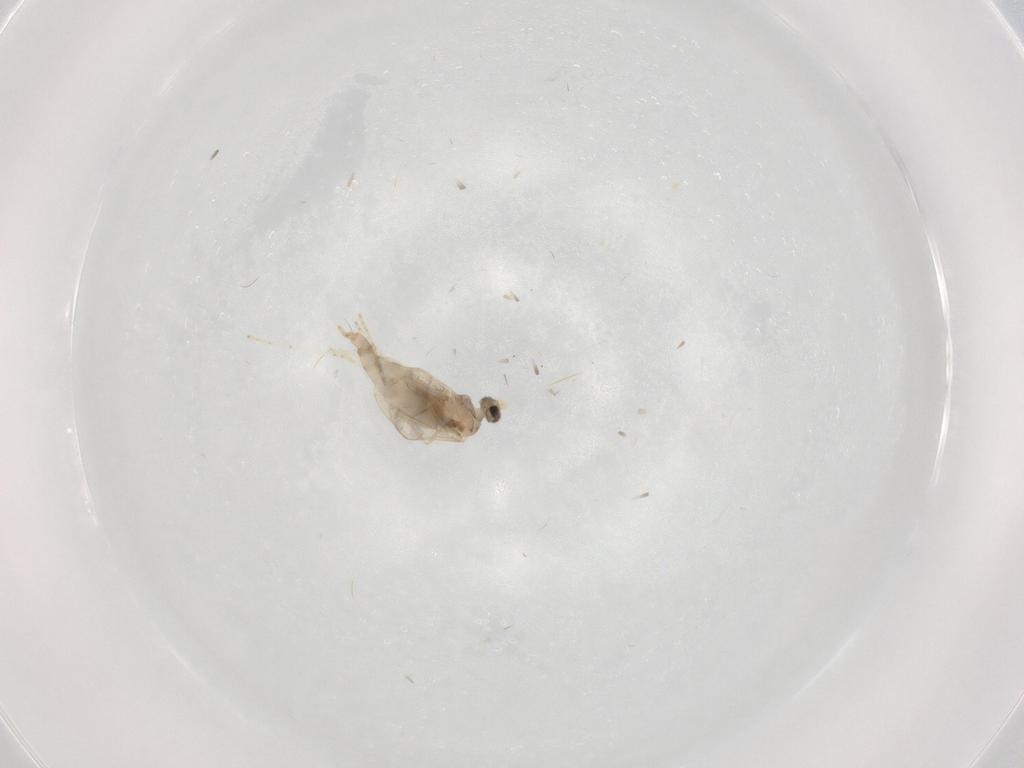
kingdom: Animalia
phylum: Arthropoda
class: Insecta
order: Diptera
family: Cecidomyiidae
